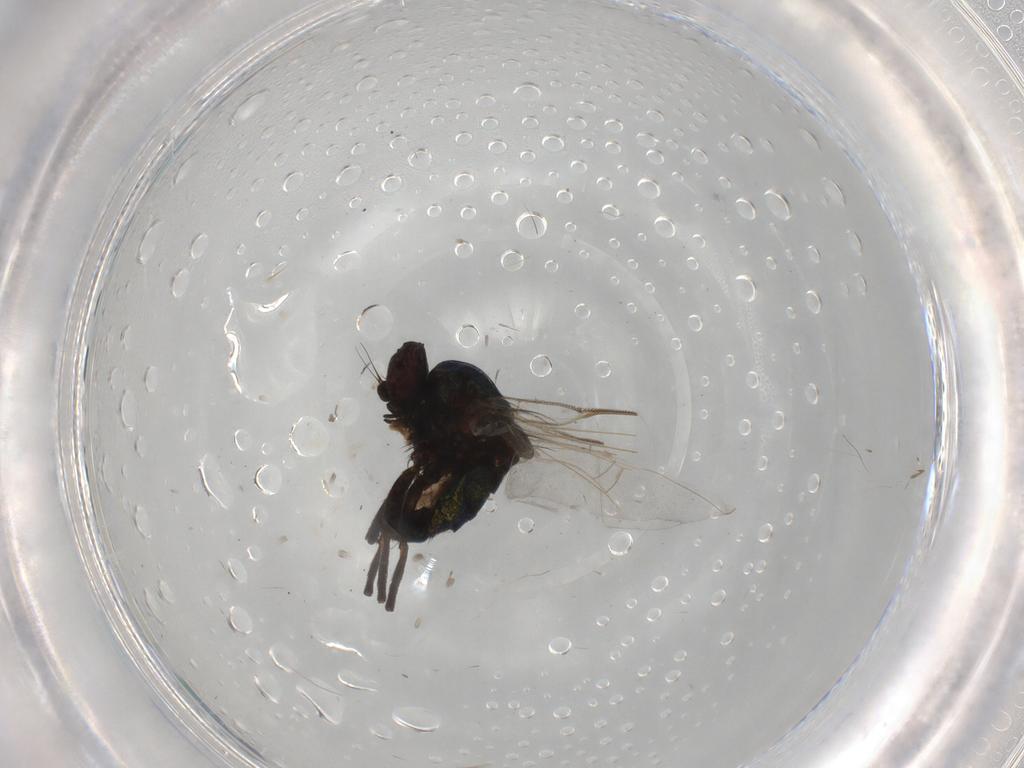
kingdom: Animalia
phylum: Arthropoda
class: Insecta
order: Diptera
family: Agromyzidae
